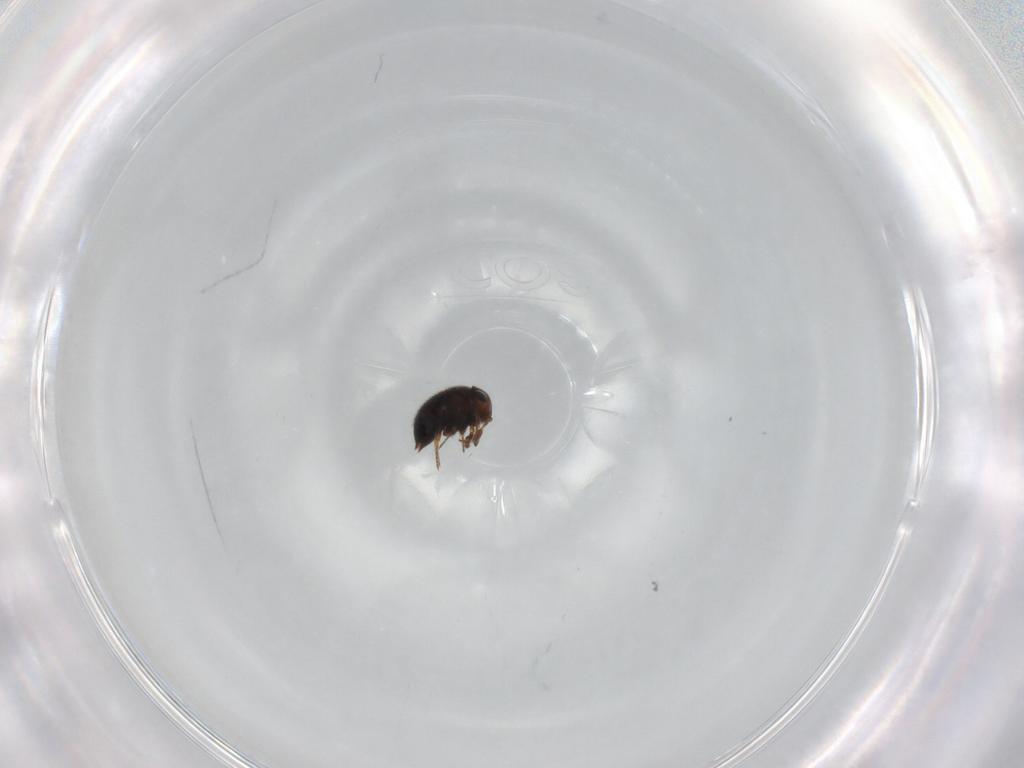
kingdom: Animalia
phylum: Arthropoda
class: Insecta
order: Hymenoptera
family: Scelionidae
